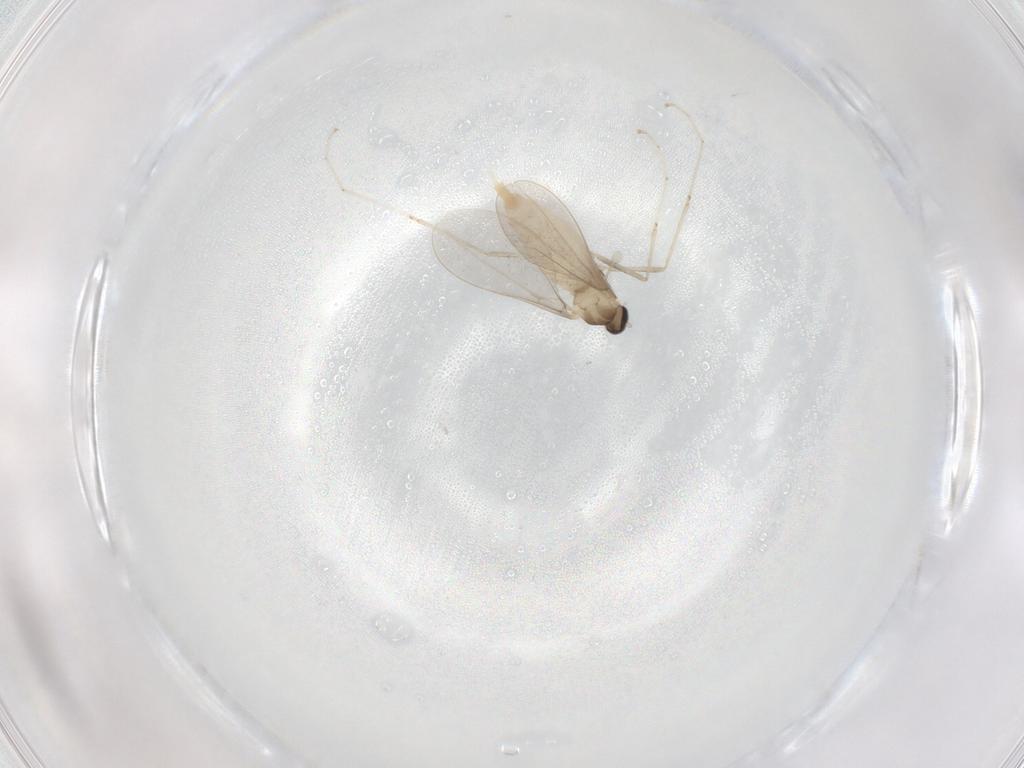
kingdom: Animalia
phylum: Arthropoda
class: Insecta
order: Diptera
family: Cecidomyiidae
